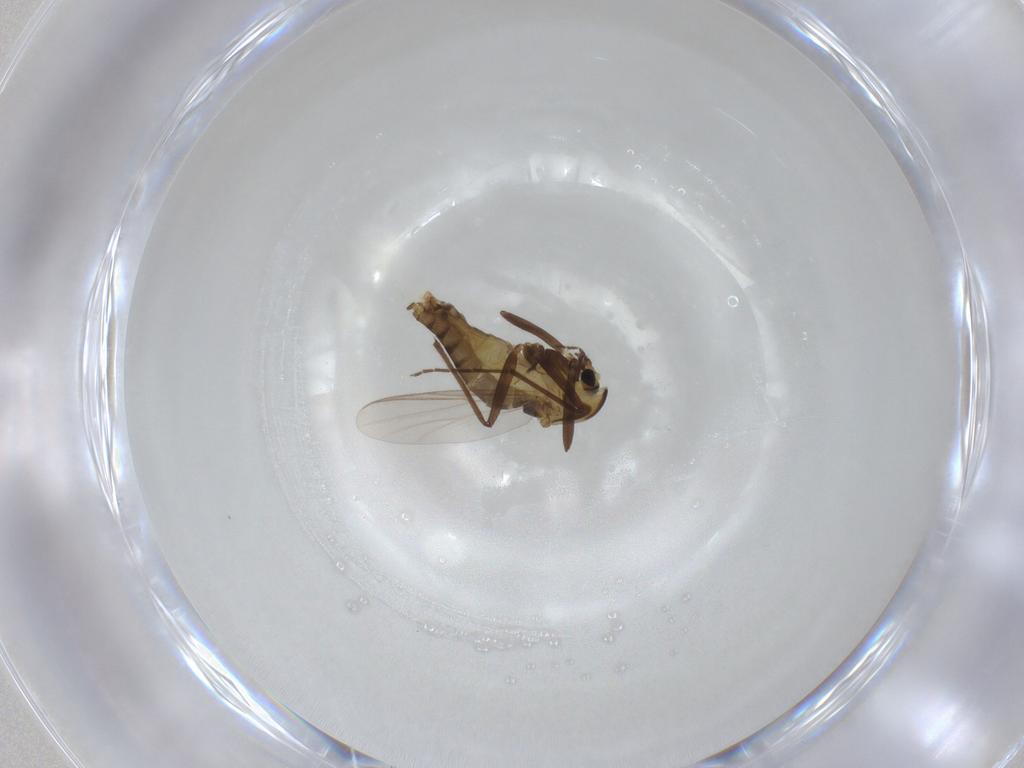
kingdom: Animalia
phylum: Arthropoda
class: Insecta
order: Diptera
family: Chironomidae
